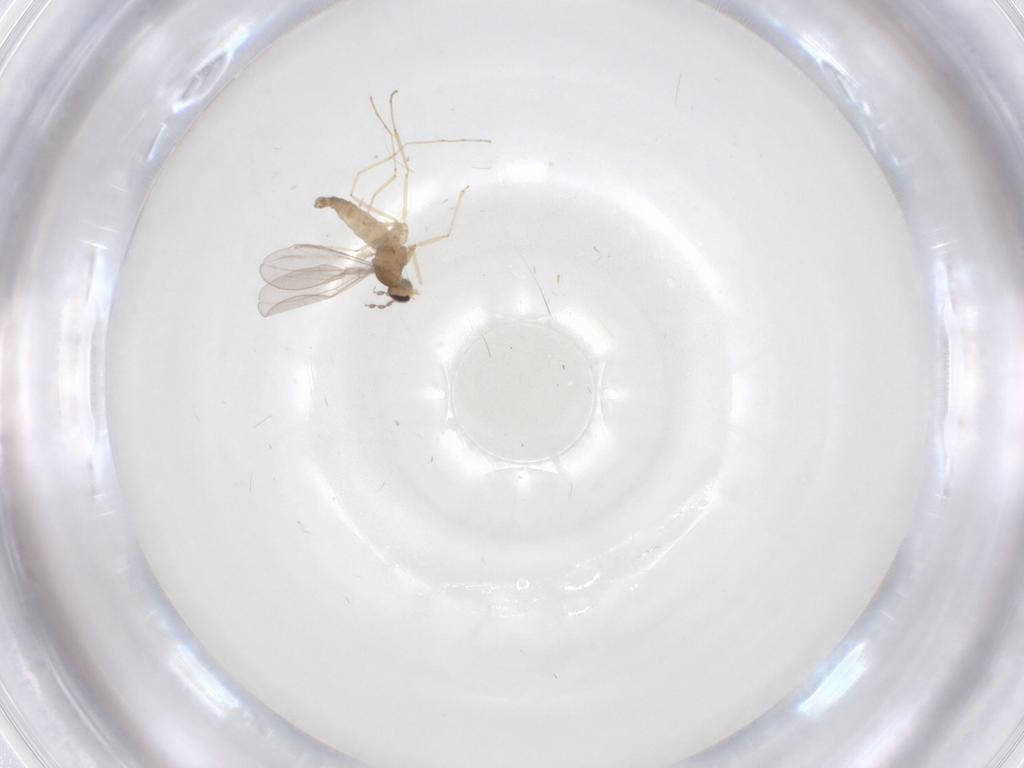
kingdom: Animalia
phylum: Arthropoda
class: Insecta
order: Diptera
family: Cecidomyiidae
